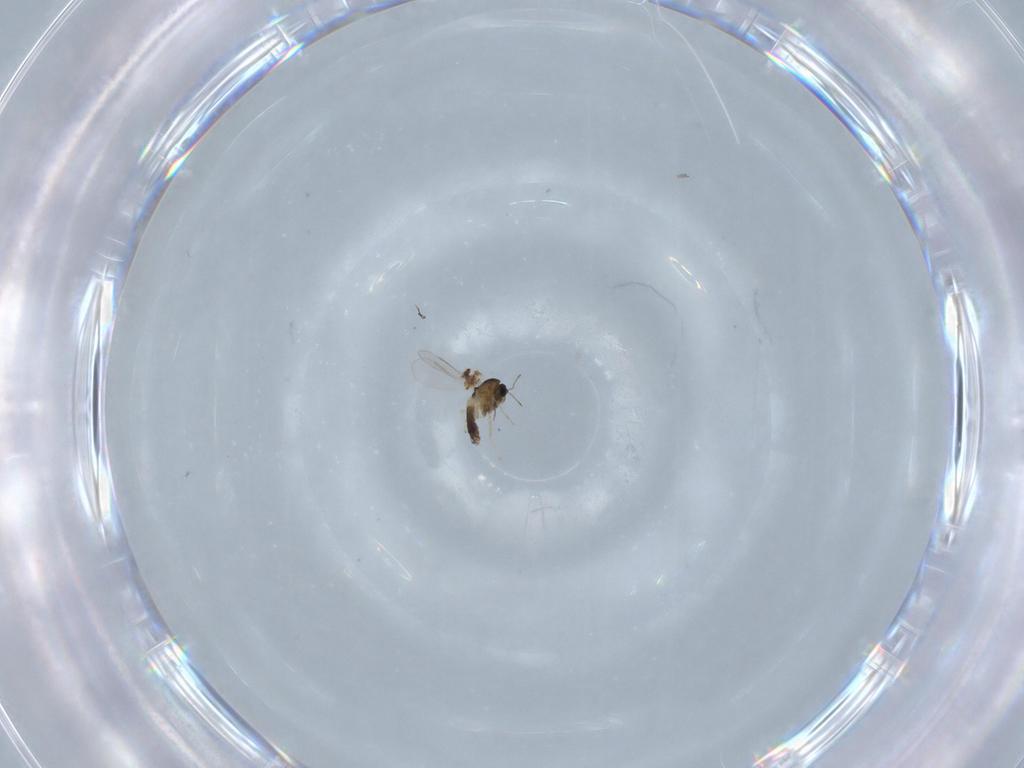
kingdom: Animalia
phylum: Arthropoda
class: Insecta
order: Diptera
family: Chironomidae
